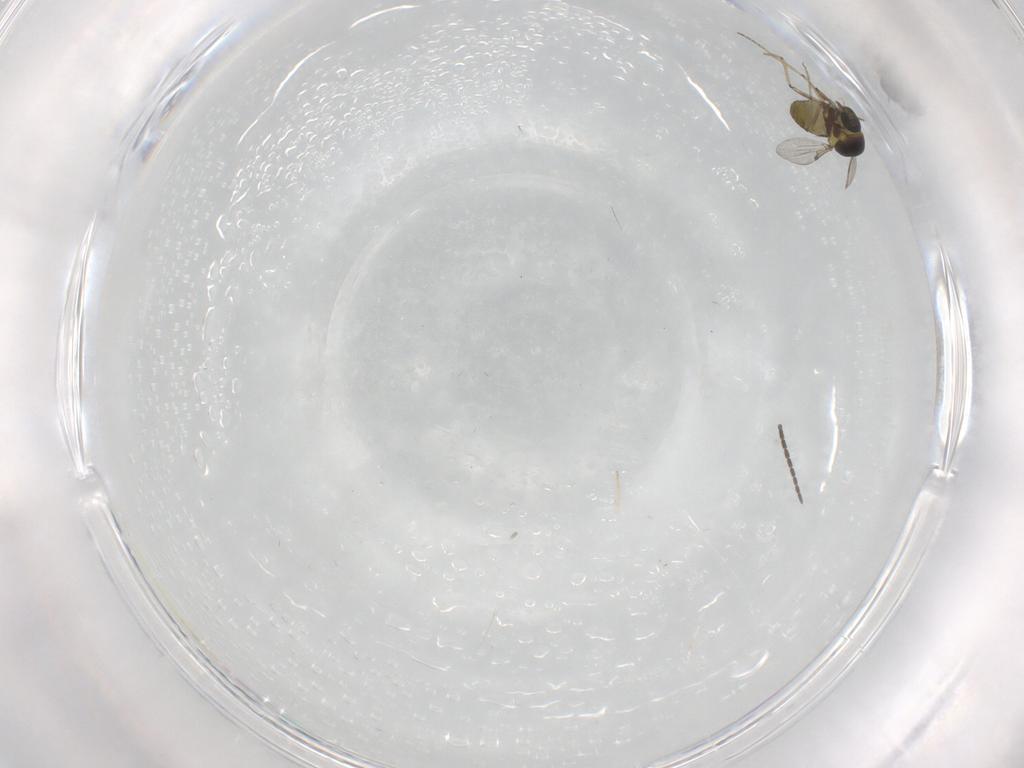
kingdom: Animalia
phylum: Arthropoda
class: Insecta
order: Diptera
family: Ceratopogonidae
